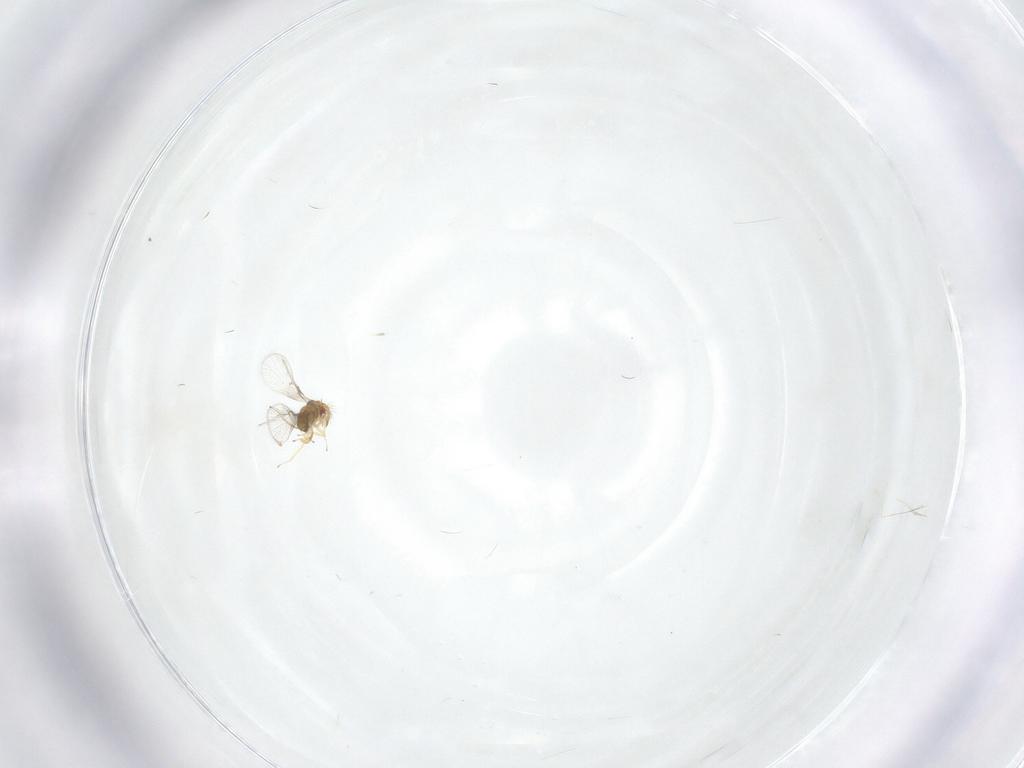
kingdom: Animalia
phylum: Arthropoda
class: Insecta
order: Hymenoptera
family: Trichogrammatidae
